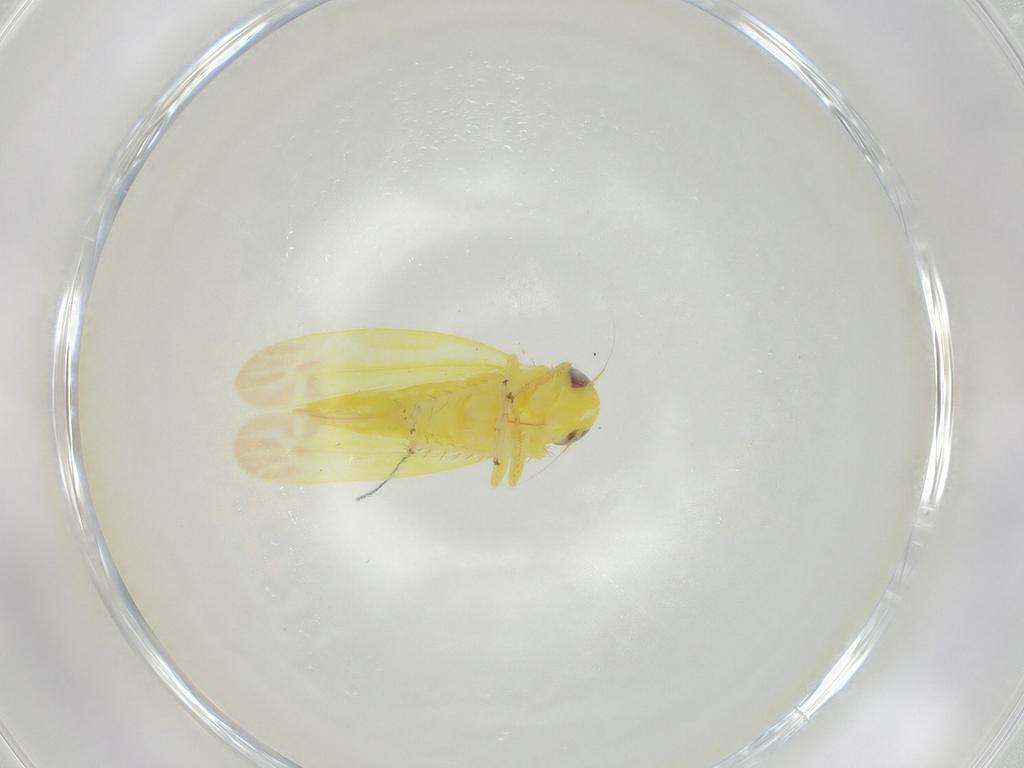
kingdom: Animalia
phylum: Arthropoda
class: Insecta
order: Hemiptera
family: Cicadellidae
